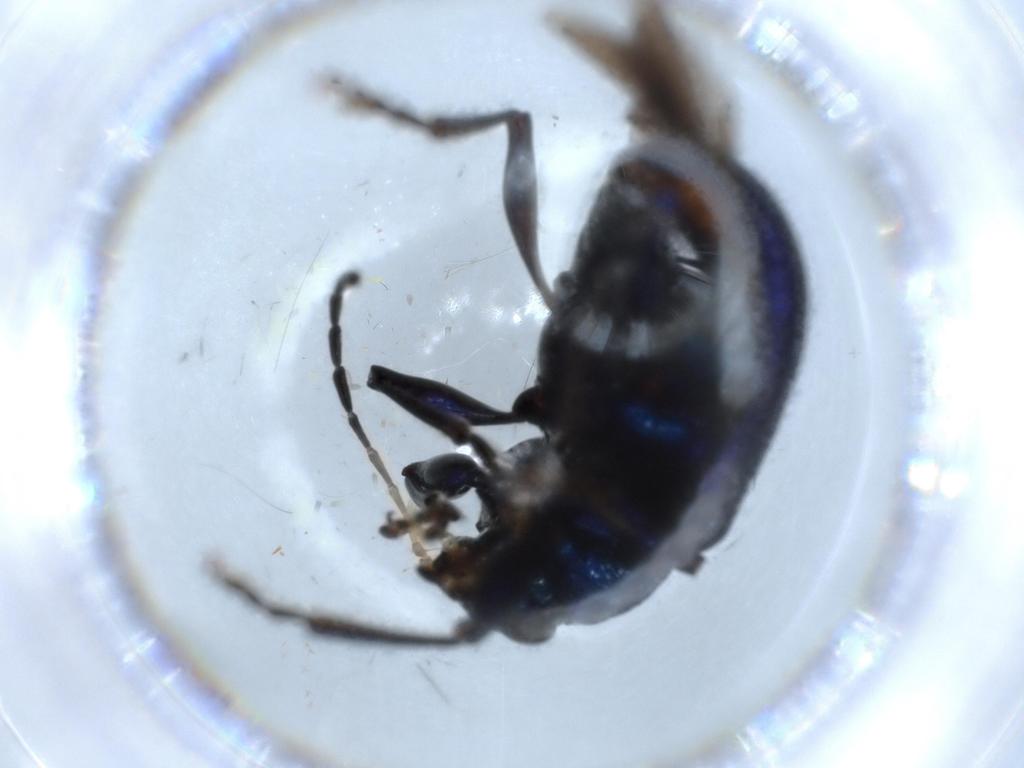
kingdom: Animalia
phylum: Arthropoda
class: Insecta
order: Coleoptera
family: Chrysomelidae
